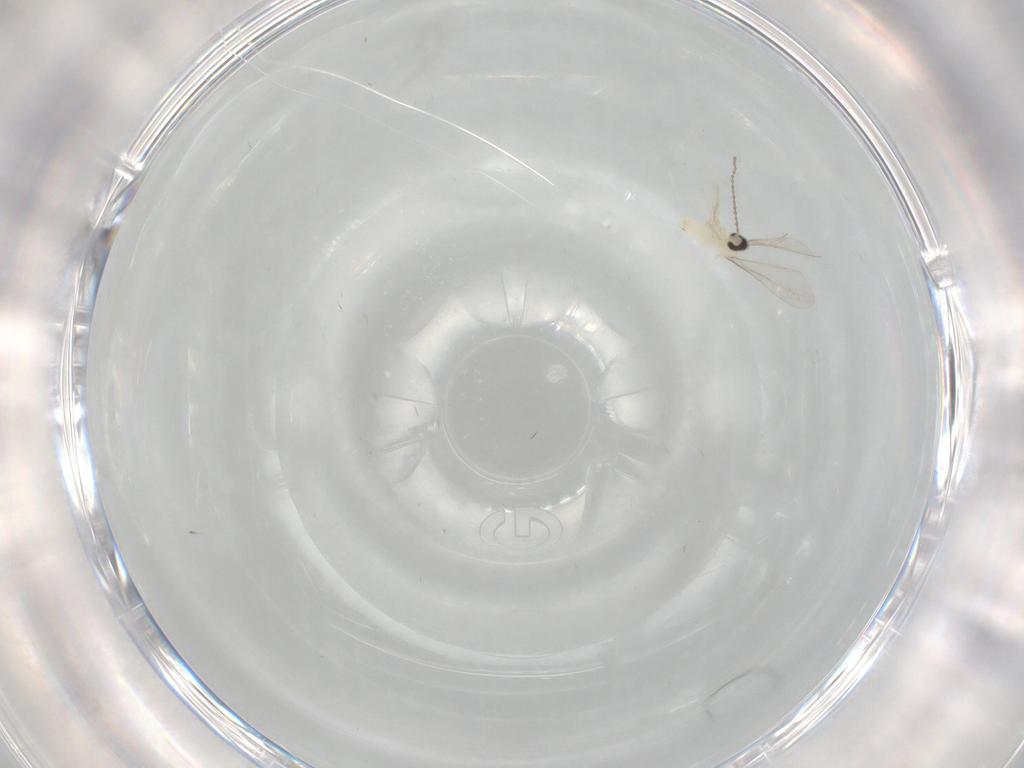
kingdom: Animalia
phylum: Arthropoda
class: Insecta
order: Diptera
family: Cecidomyiidae
